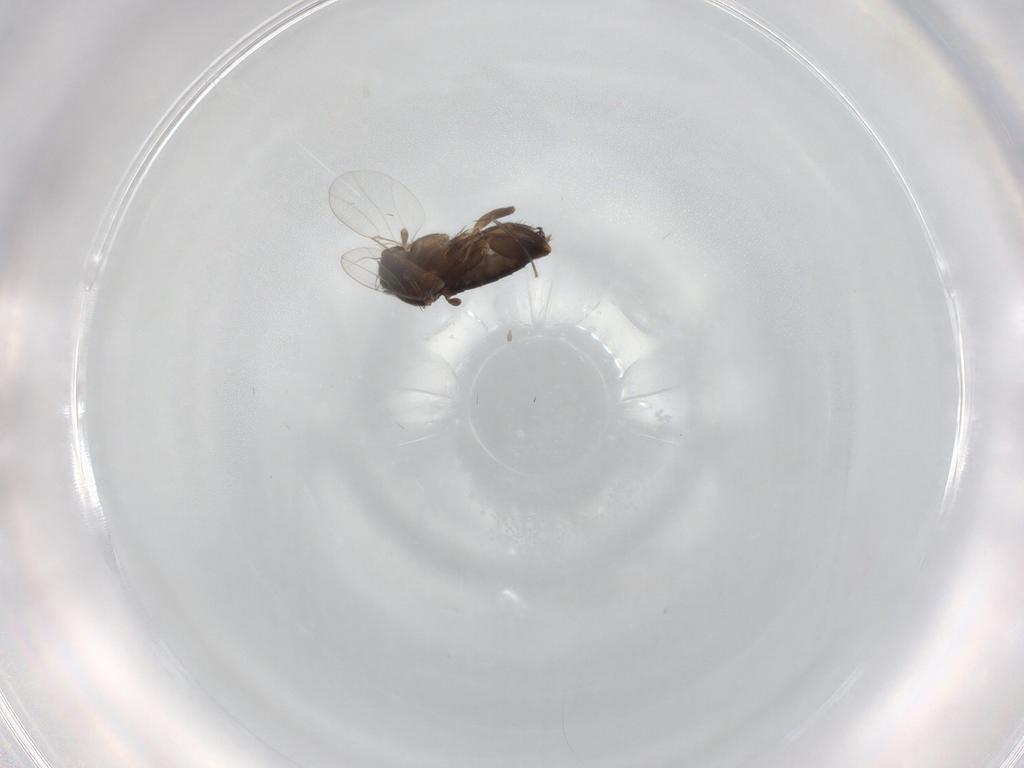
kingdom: Animalia
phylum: Arthropoda
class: Insecta
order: Diptera
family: Phoridae
